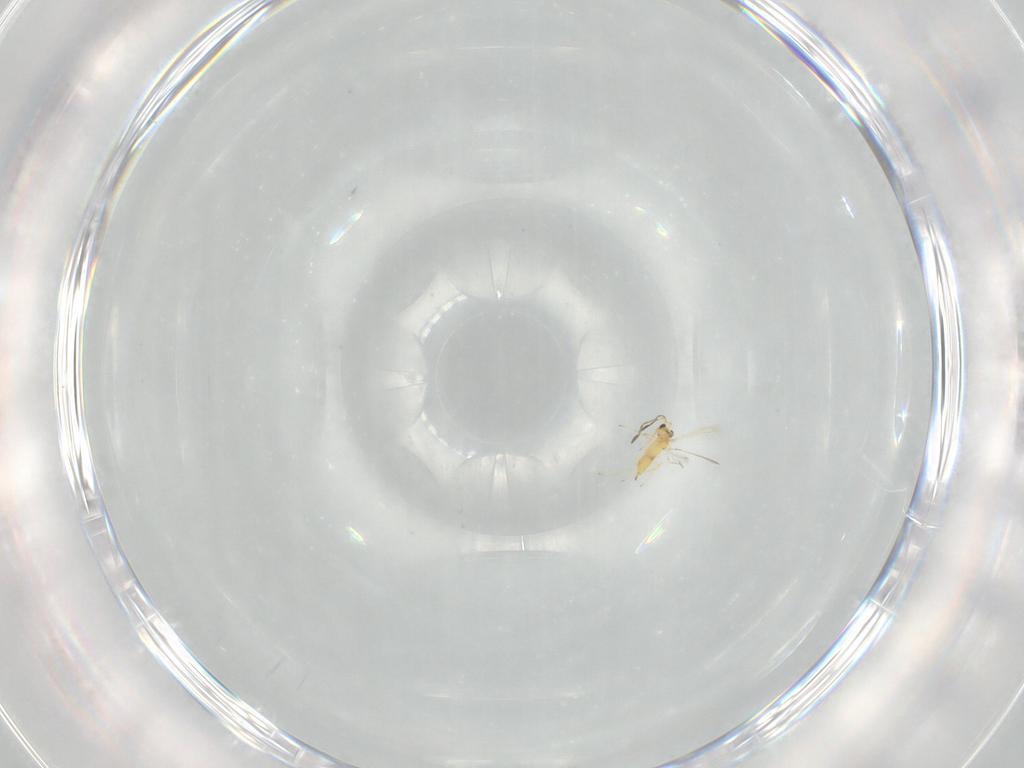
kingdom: Animalia
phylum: Arthropoda
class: Insecta
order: Hymenoptera
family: Mymaridae
